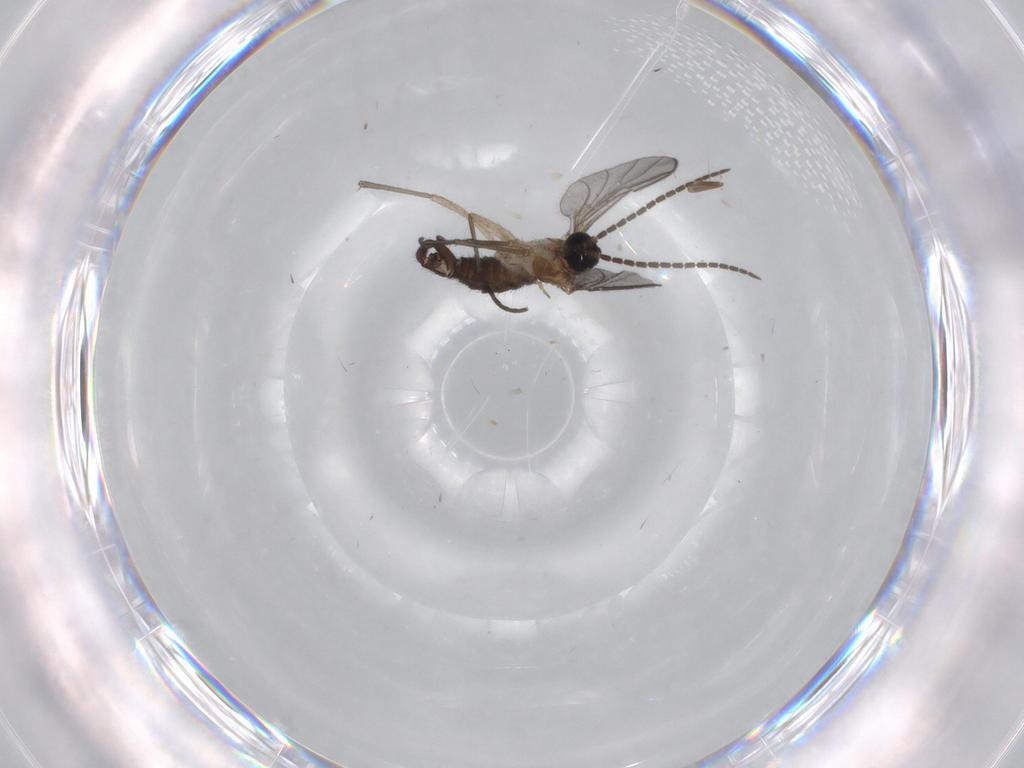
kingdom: Animalia
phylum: Arthropoda
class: Insecta
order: Diptera
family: Sciaridae
